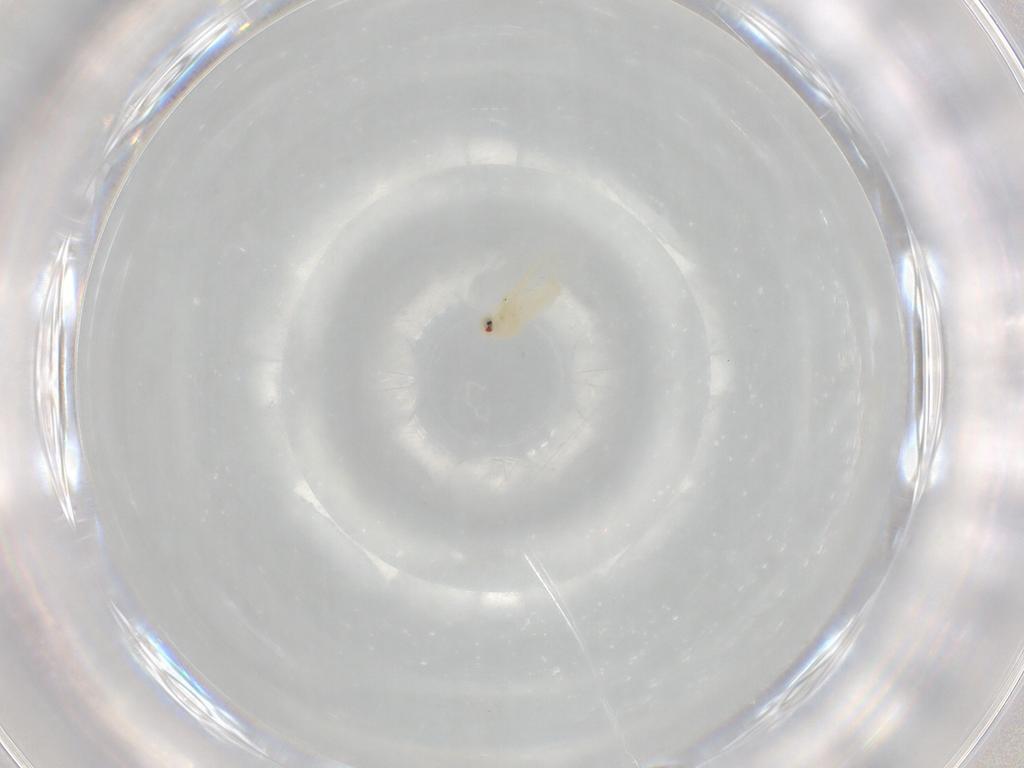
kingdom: Animalia
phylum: Arthropoda
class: Insecta
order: Hemiptera
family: Aleyrodidae
